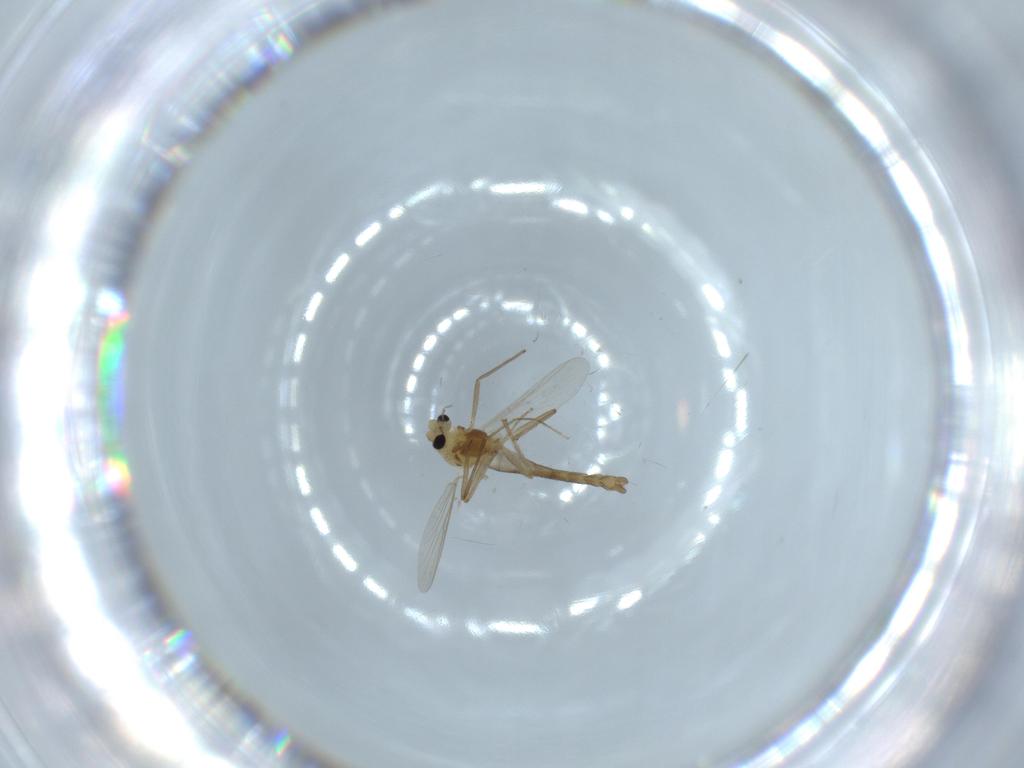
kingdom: Animalia
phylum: Arthropoda
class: Insecta
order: Diptera
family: Chironomidae
